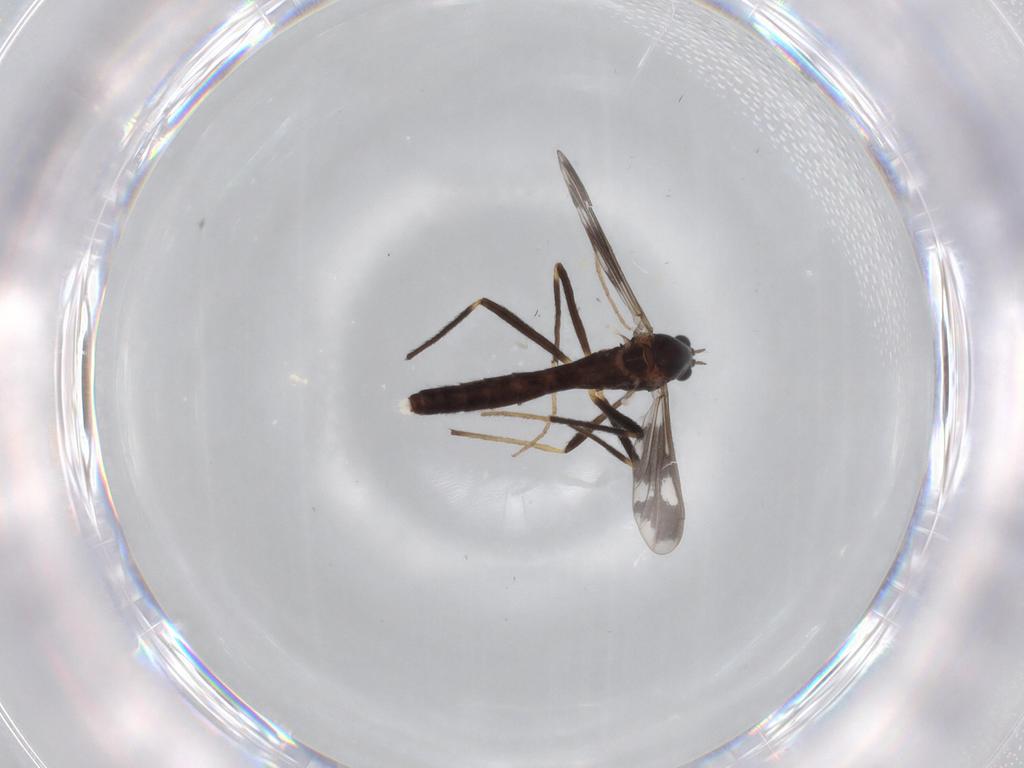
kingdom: Animalia
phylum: Arthropoda
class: Insecta
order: Diptera
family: Chironomidae
